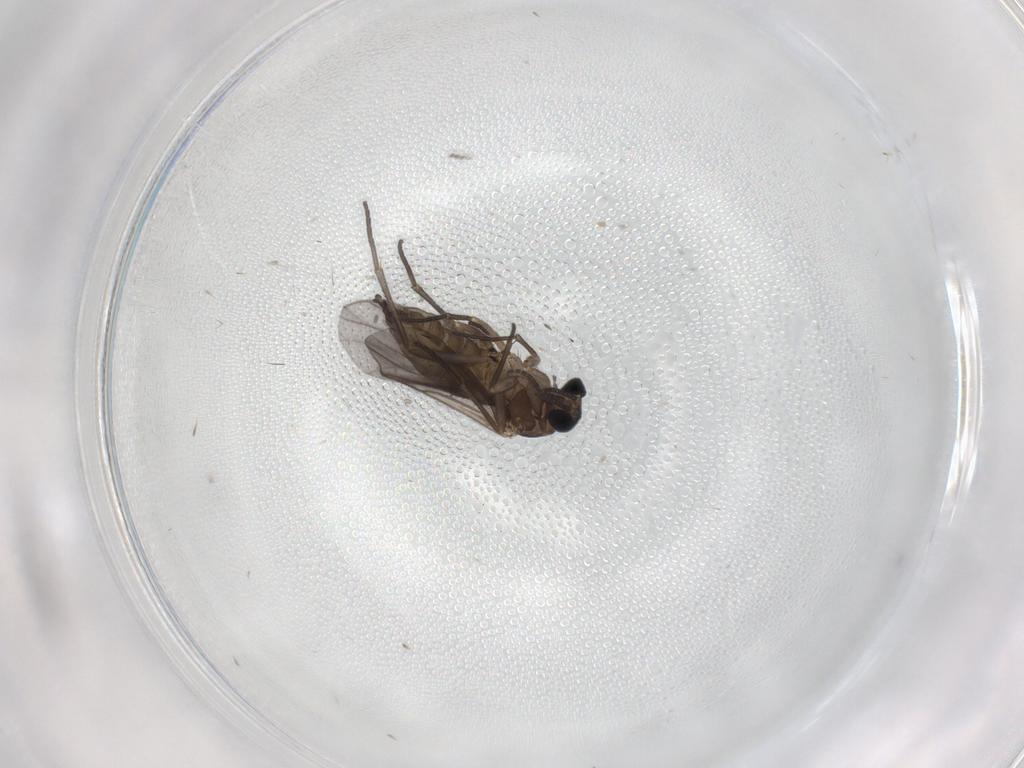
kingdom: Animalia
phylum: Arthropoda
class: Insecta
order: Diptera
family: Sciaridae
